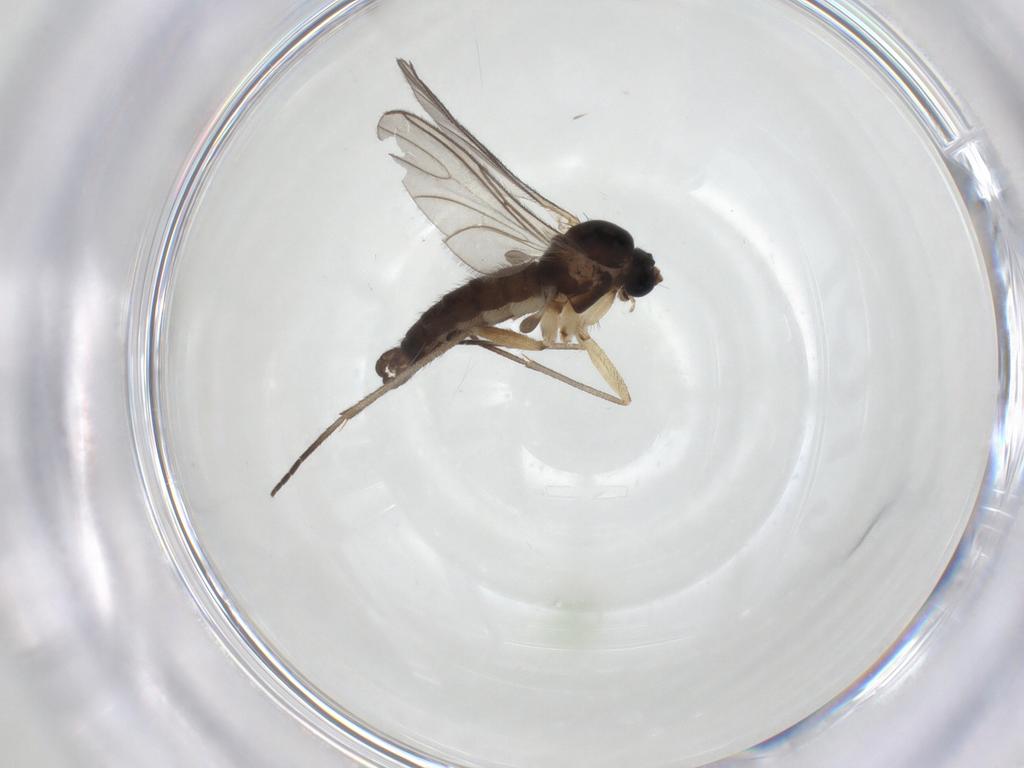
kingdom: Animalia
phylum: Arthropoda
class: Insecta
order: Diptera
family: Sciaridae
